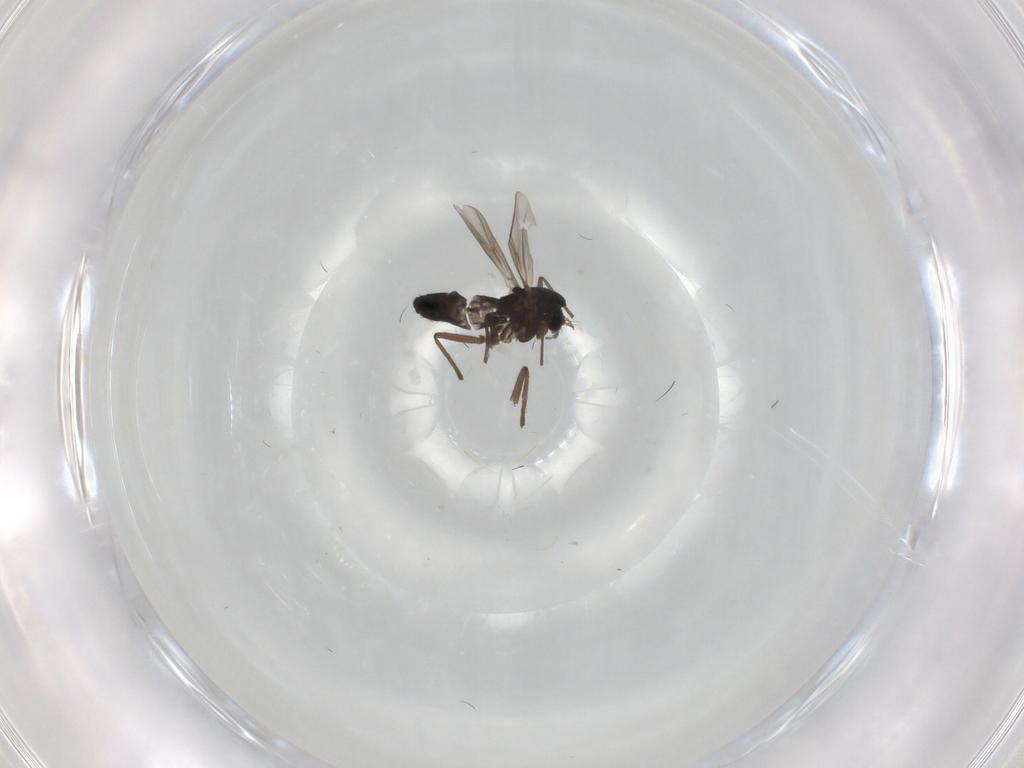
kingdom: Animalia
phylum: Arthropoda
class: Insecta
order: Diptera
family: Chironomidae
